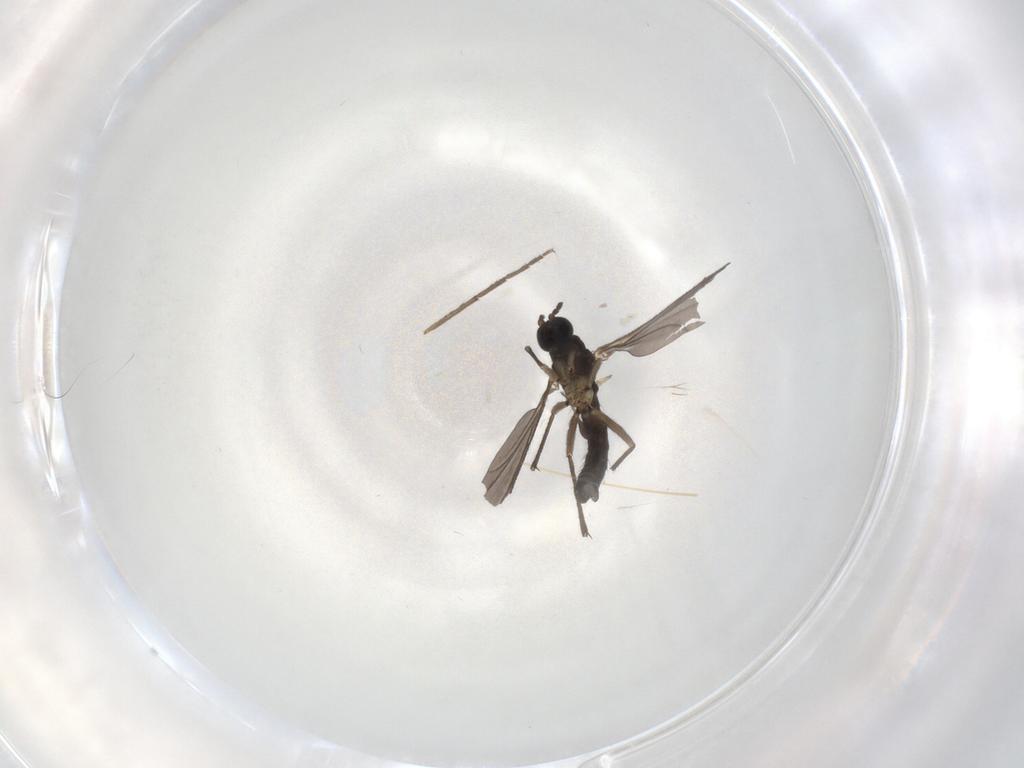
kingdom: Animalia
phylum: Arthropoda
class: Insecta
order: Diptera
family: Sciaridae
